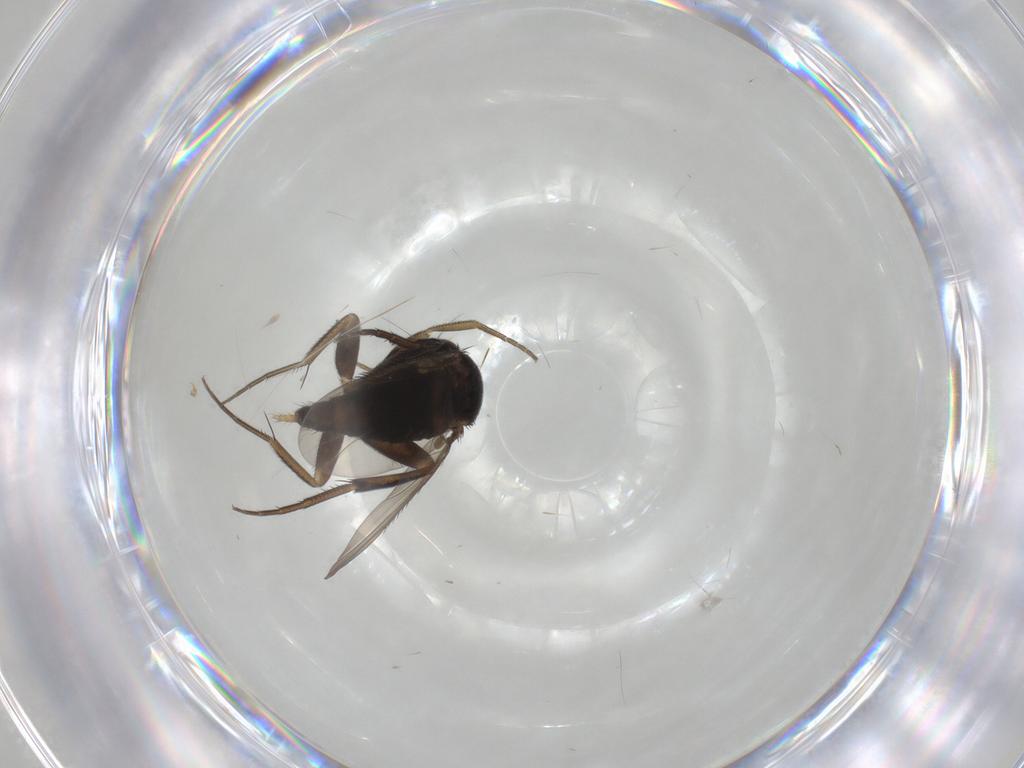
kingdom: Animalia
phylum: Arthropoda
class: Insecta
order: Diptera
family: Phoridae
